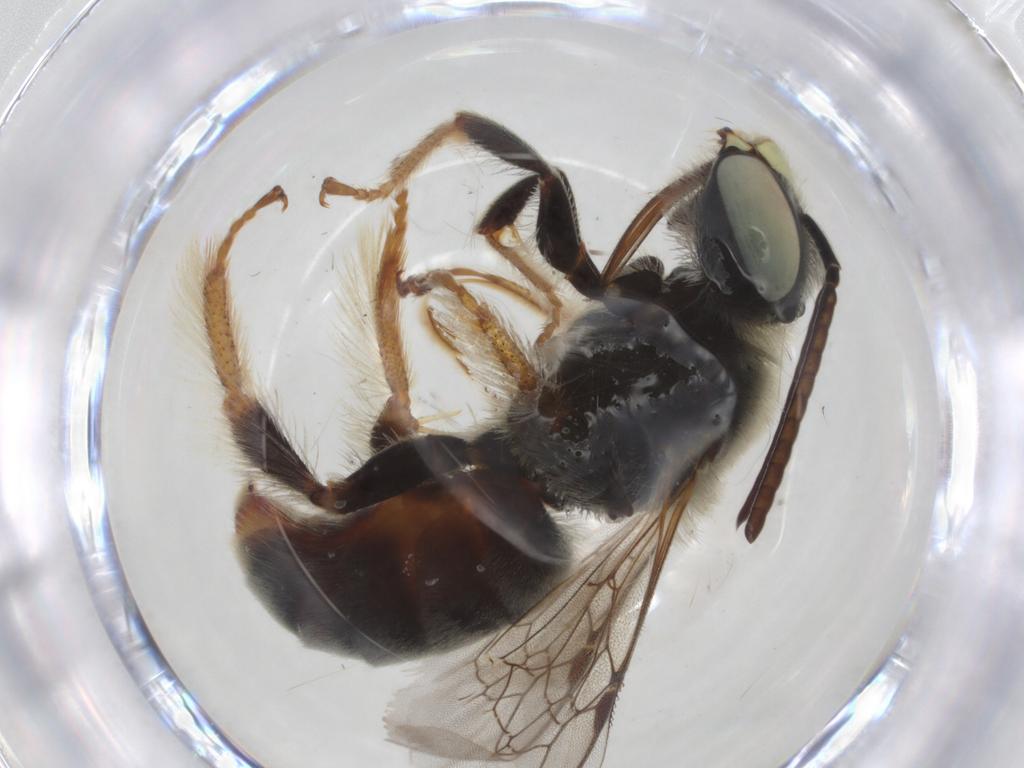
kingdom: Animalia
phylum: Arthropoda
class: Insecta
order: Hymenoptera
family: Apidae
